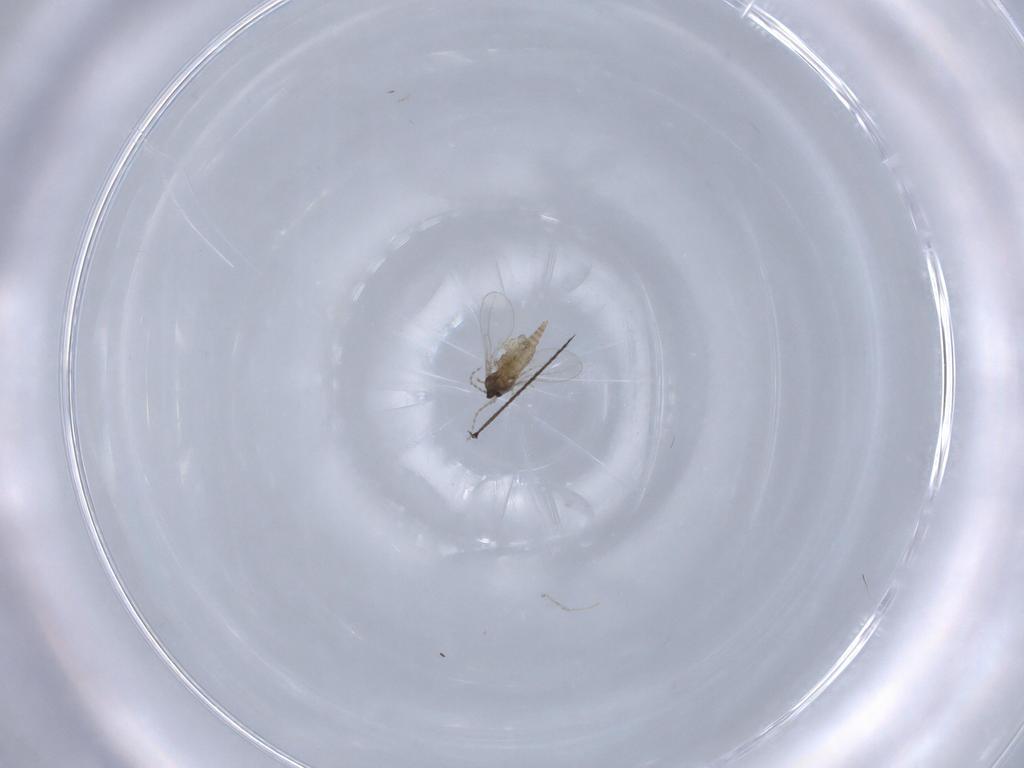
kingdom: Animalia
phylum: Arthropoda
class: Insecta
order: Diptera
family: Cecidomyiidae
